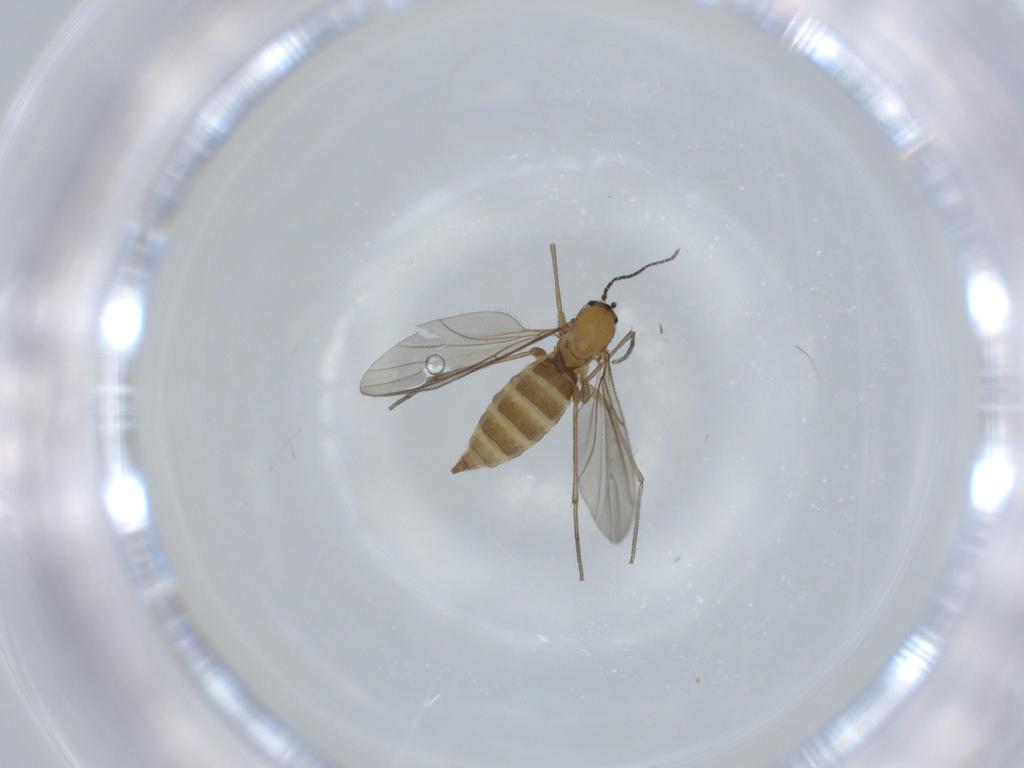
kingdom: Animalia
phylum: Arthropoda
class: Insecta
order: Diptera
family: Sciaridae
